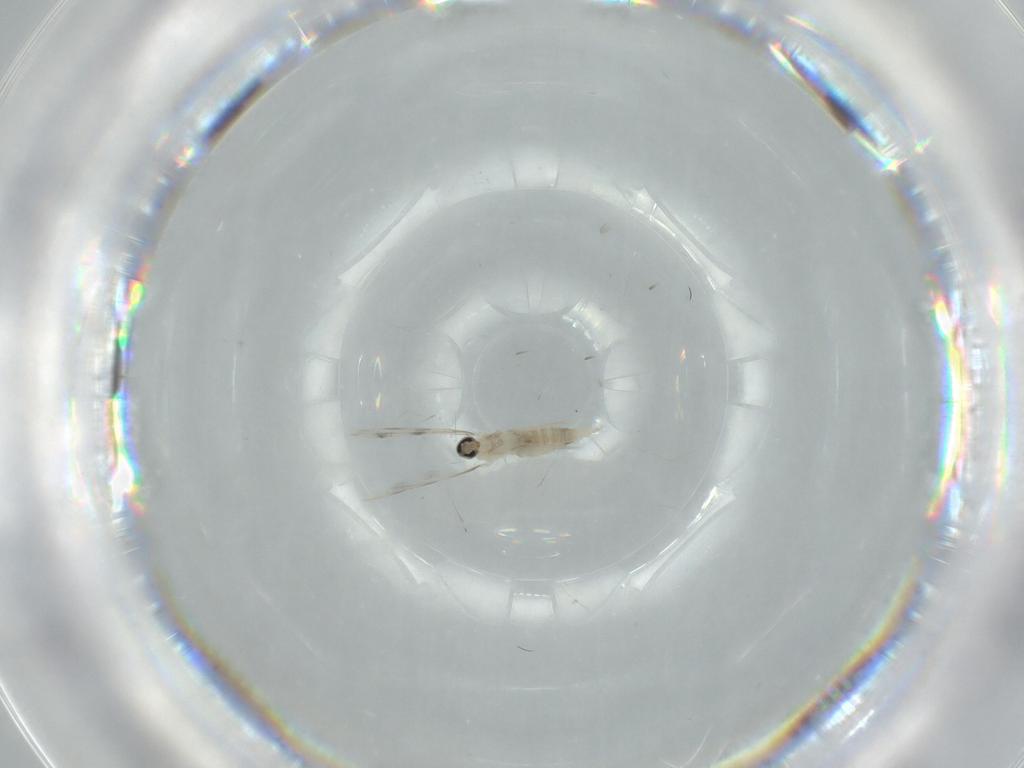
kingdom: Animalia
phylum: Arthropoda
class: Insecta
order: Diptera
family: Cecidomyiidae
